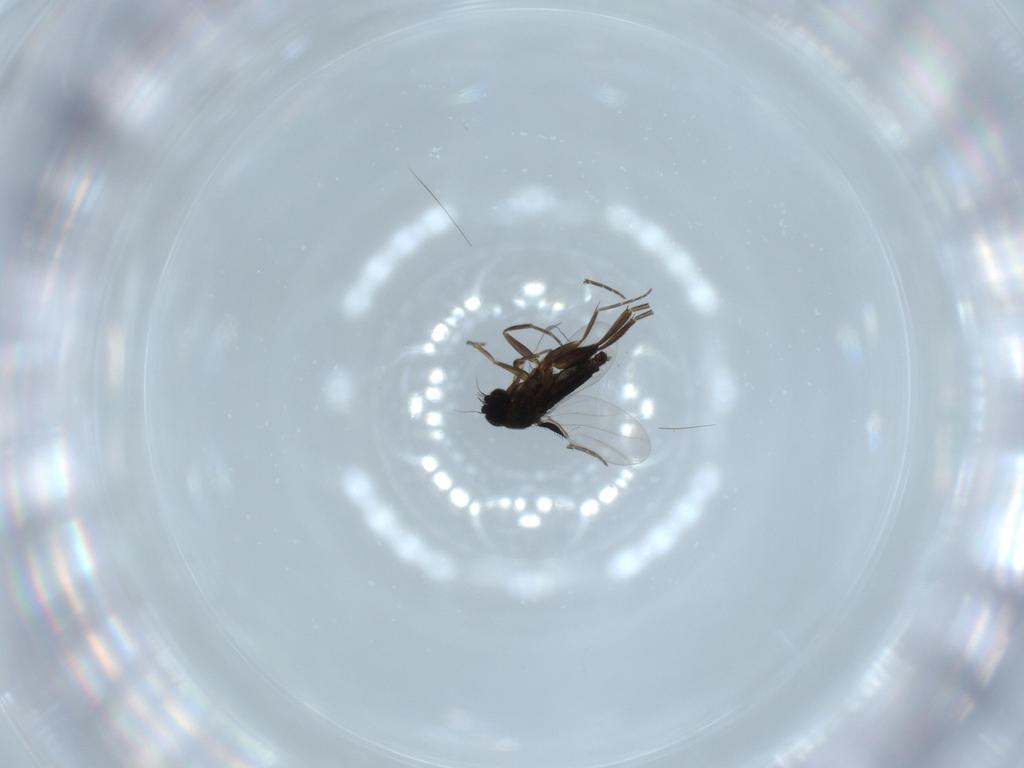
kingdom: Animalia
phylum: Arthropoda
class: Insecta
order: Diptera
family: Phoridae
